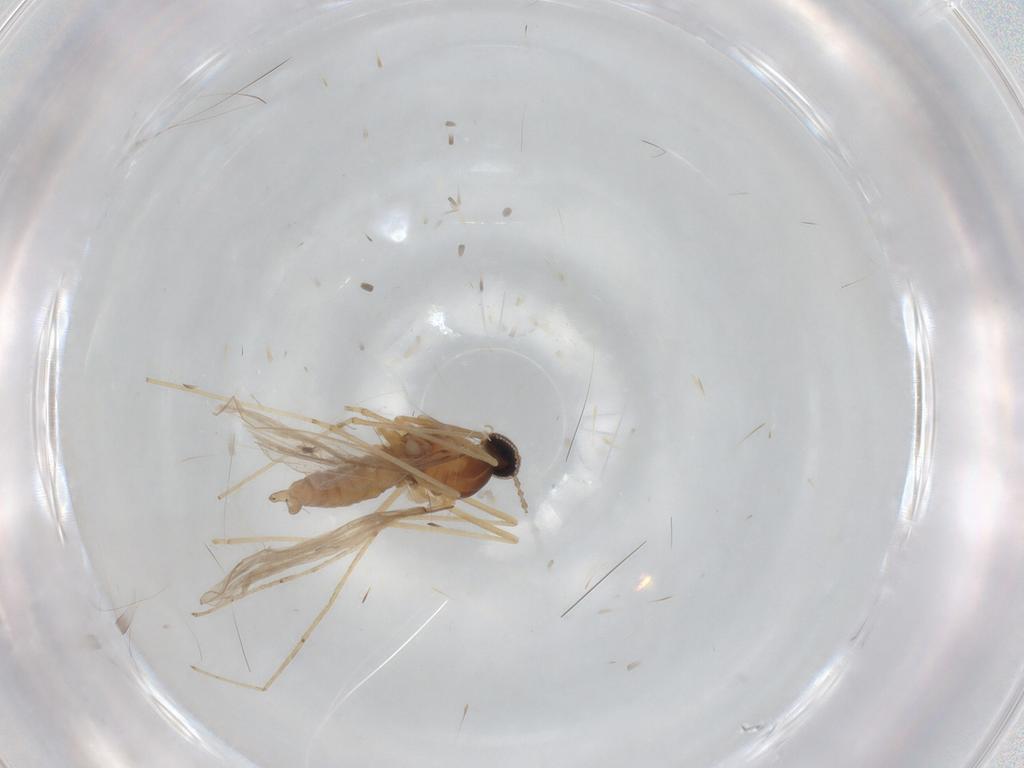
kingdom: Animalia
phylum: Arthropoda
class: Insecta
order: Diptera
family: Cecidomyiidae
